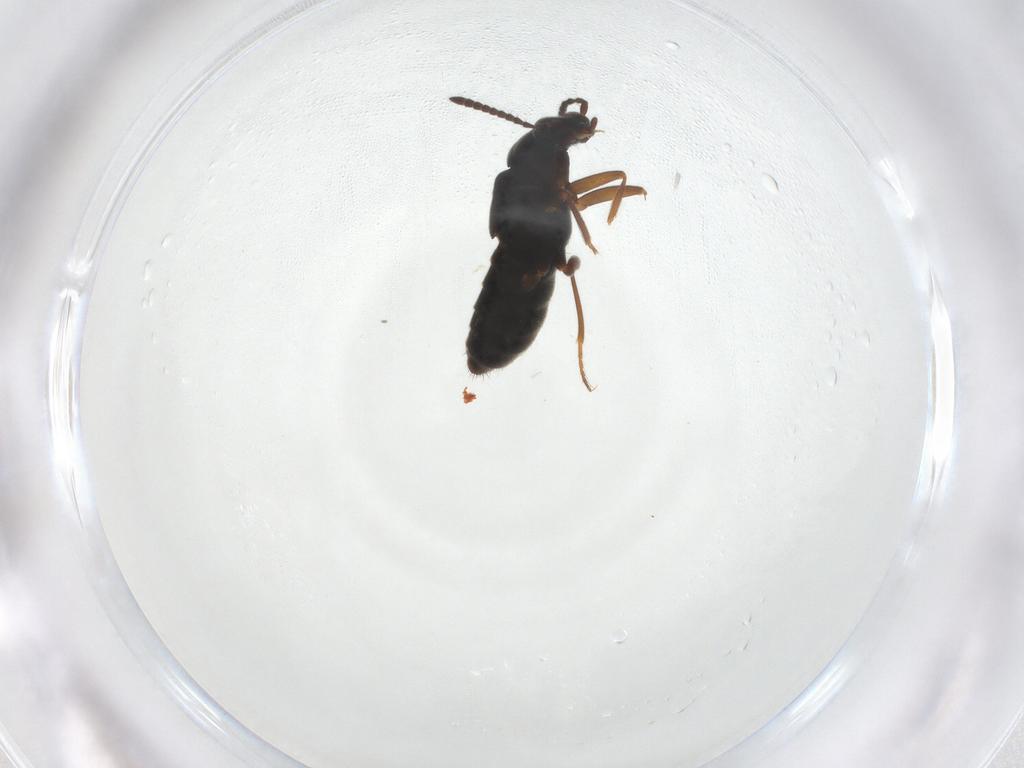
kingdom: Animalia
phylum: Arthropoda
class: Insecta
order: Coleoptera
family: Staphylinidae
